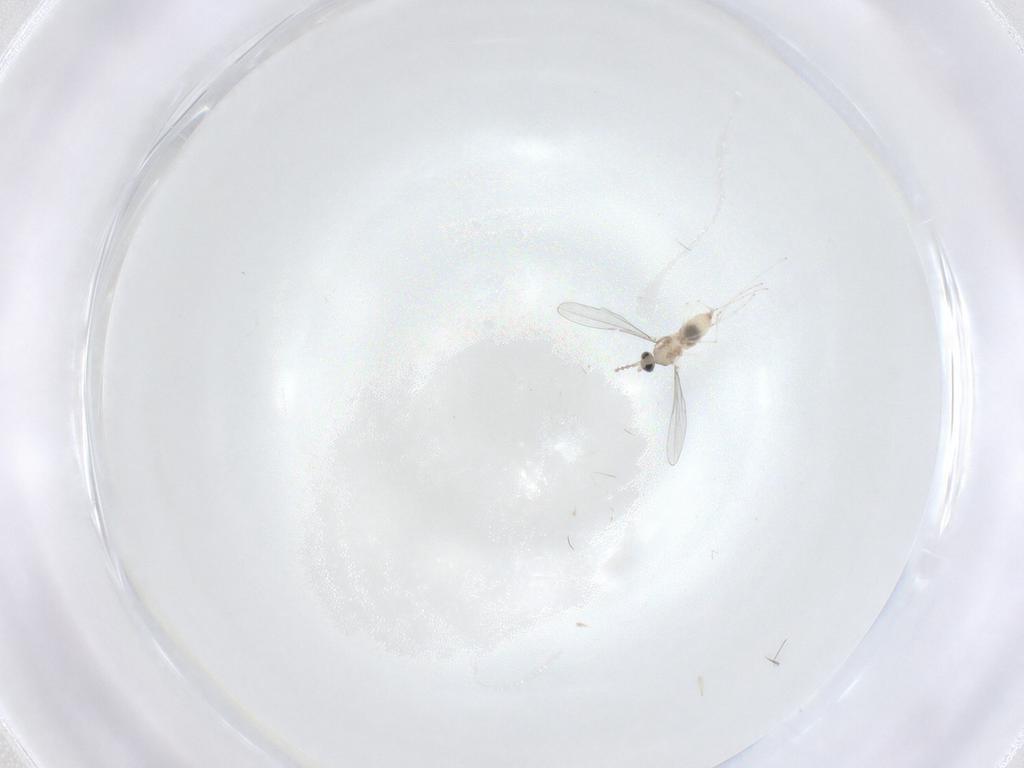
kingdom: Animalia
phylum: Arthropoda
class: Insecta
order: Diptera
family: Cecidomyiidae
